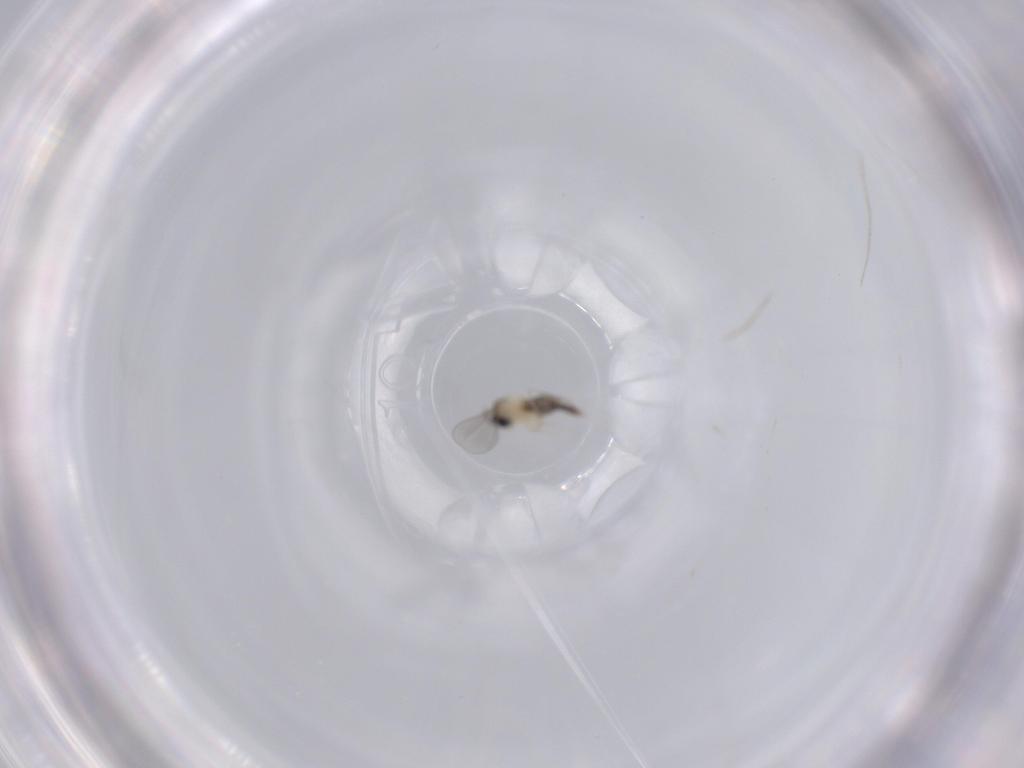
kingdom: Animalia
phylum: Arthropoda
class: Insecta
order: Diptera
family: Cecidomyiidae
